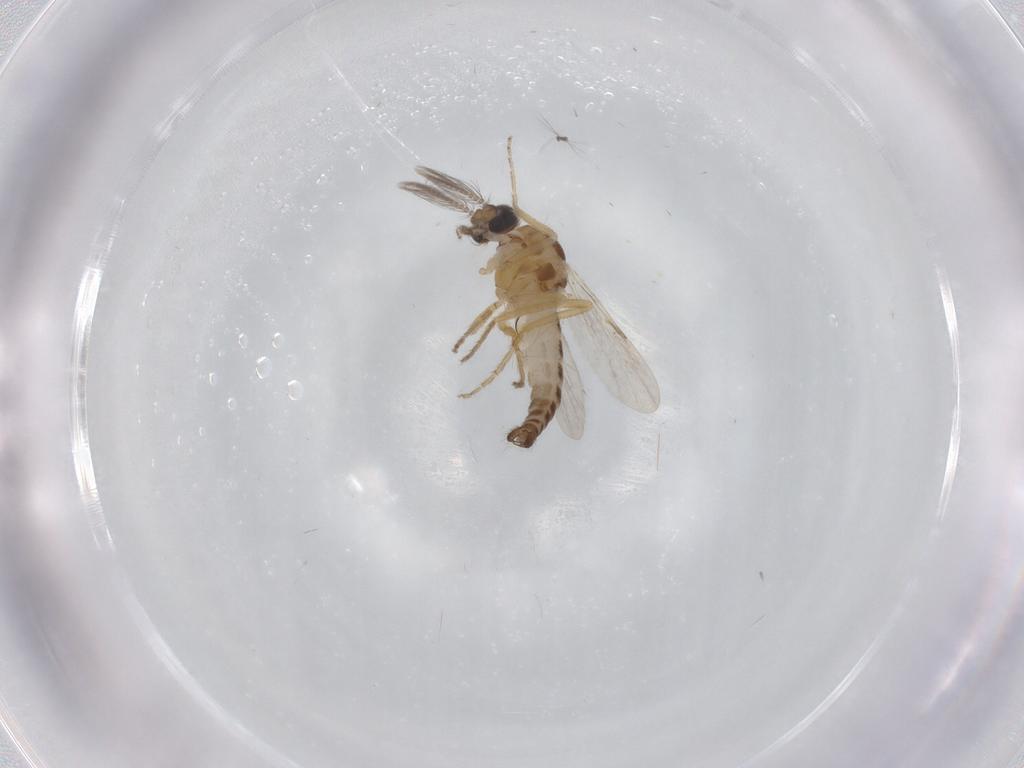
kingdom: Animalia
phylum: Arthropoda
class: Insecta
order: Diptera
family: Ceratopogonidae
